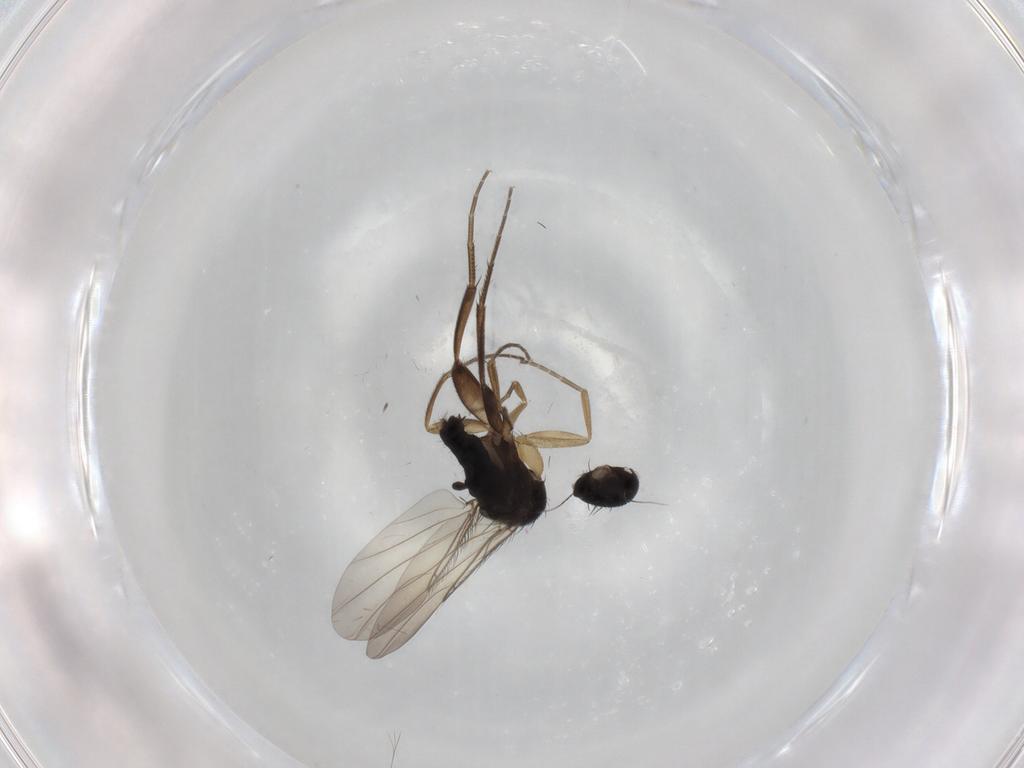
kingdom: Animalia
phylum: Arthropoda
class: Insecta
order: Diptera
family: Phoridae
